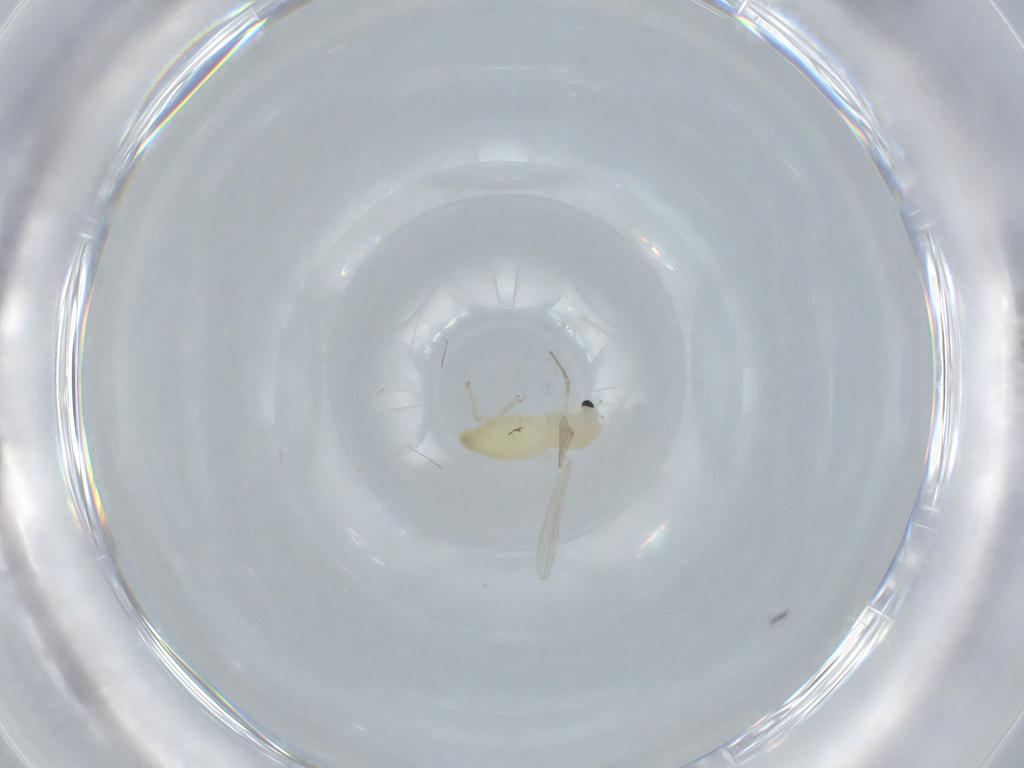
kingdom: Animalia
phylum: Arthropoda
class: Insecta
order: Diptera
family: Chironomidae
